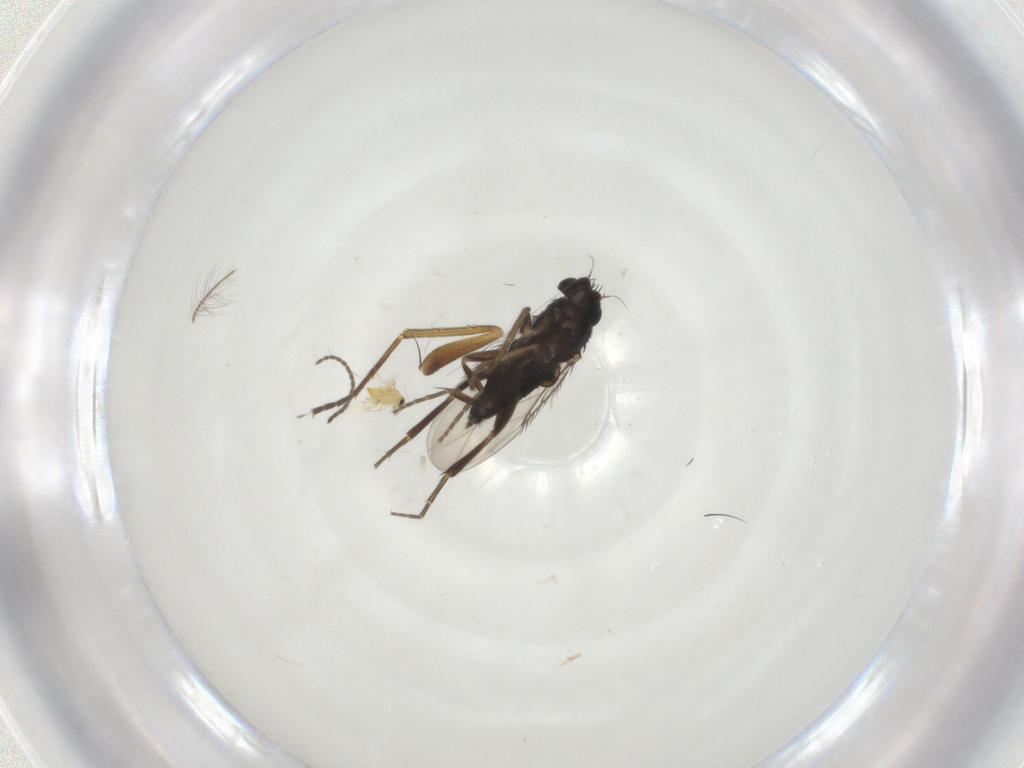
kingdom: Animalia
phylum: Arthropoda
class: Insecta
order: Diptera
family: Phoridae
